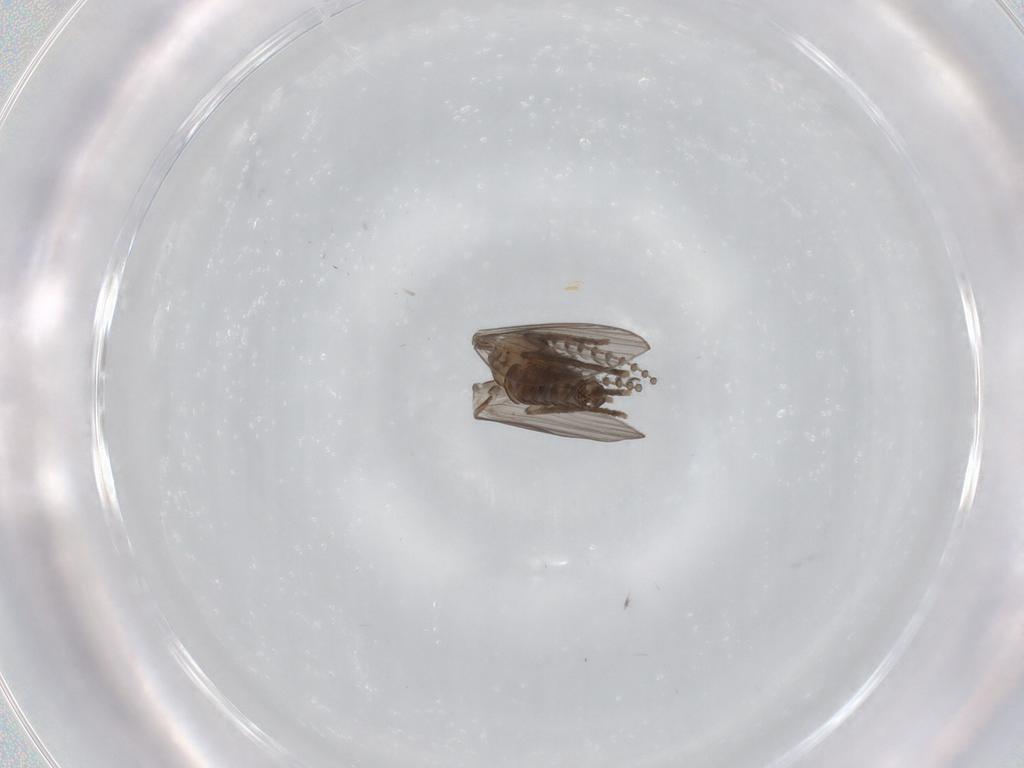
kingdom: Animalia
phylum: Arthropoda
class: Insecta
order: Diptera
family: Psychodidae
